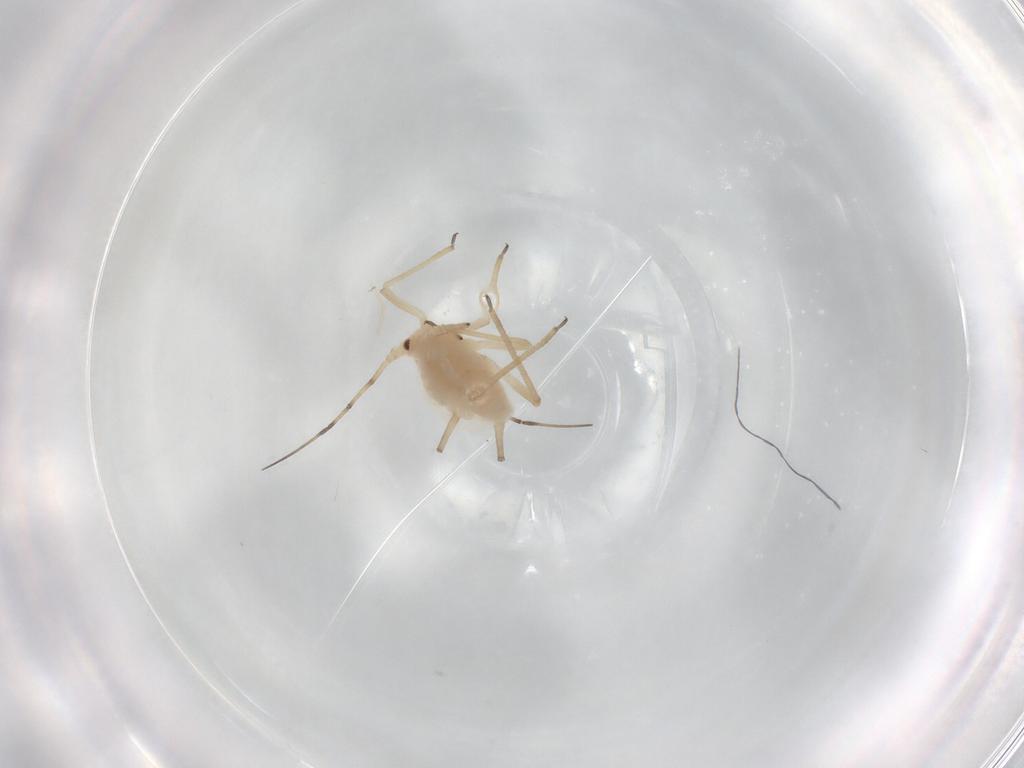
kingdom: Animalia
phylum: Arthropoda
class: Insecta
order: Hemiptera
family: Aphididae
